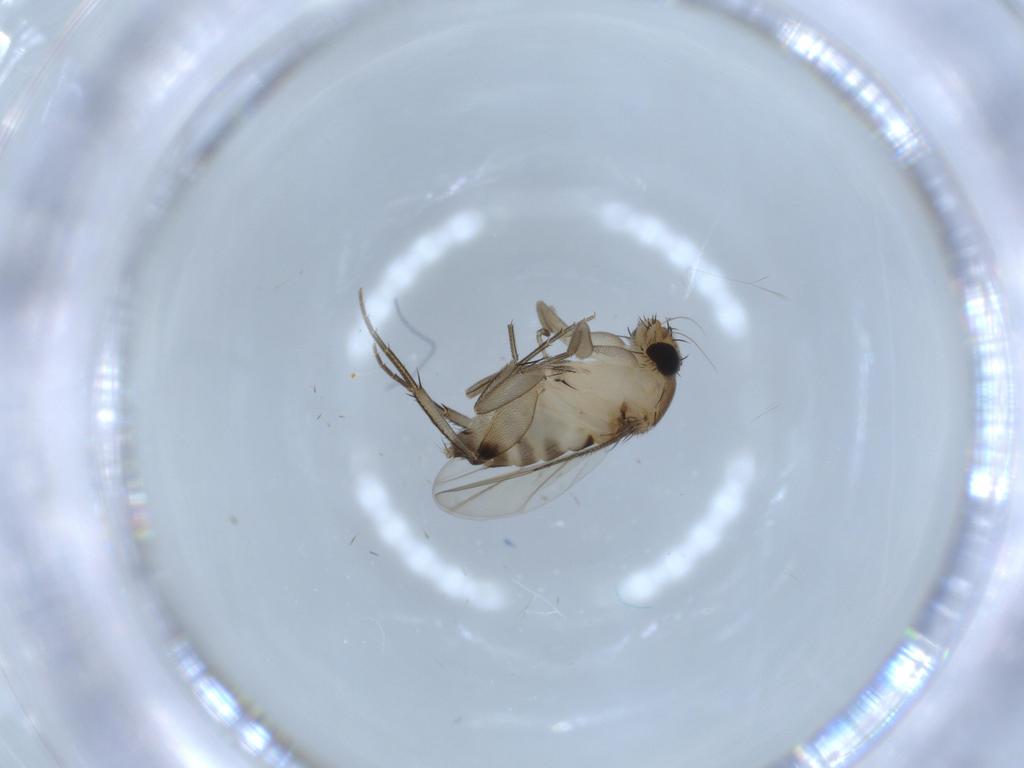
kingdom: Animalia
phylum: Arthropoda
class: Insecta
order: Diptera
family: Phoridae
